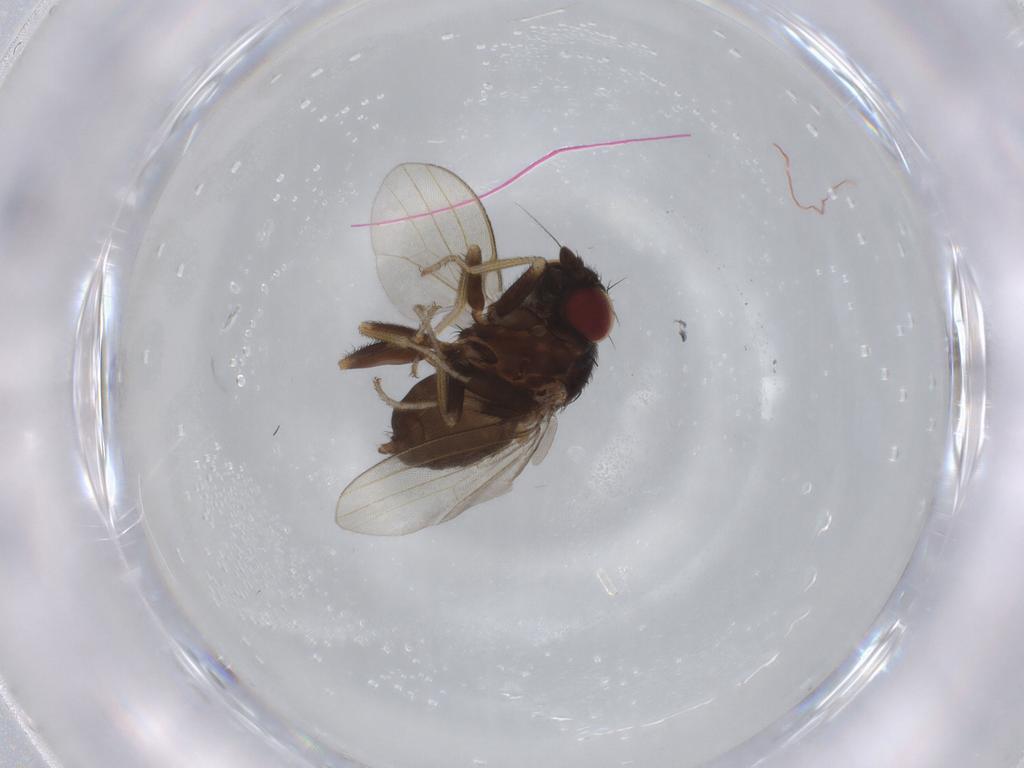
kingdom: Animalia
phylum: Arthropoda
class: Insecta
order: Diptera
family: Milichiidae
